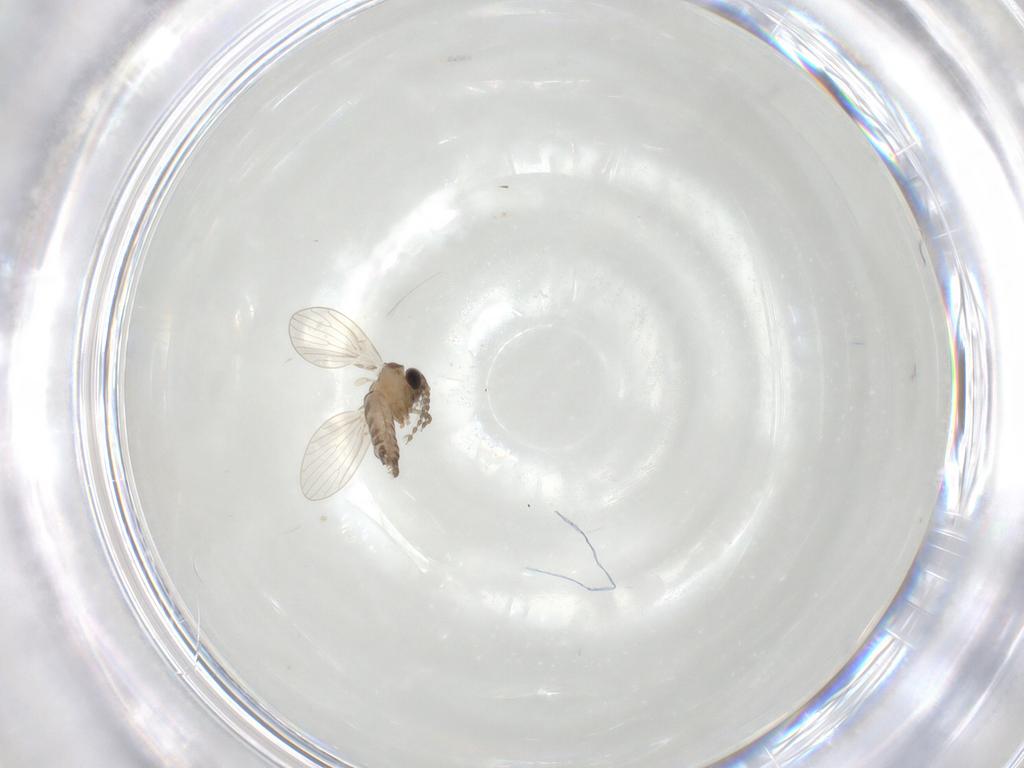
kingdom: Animalia
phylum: Arthropoda
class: Insecta
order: Diptera
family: Psychodidae
